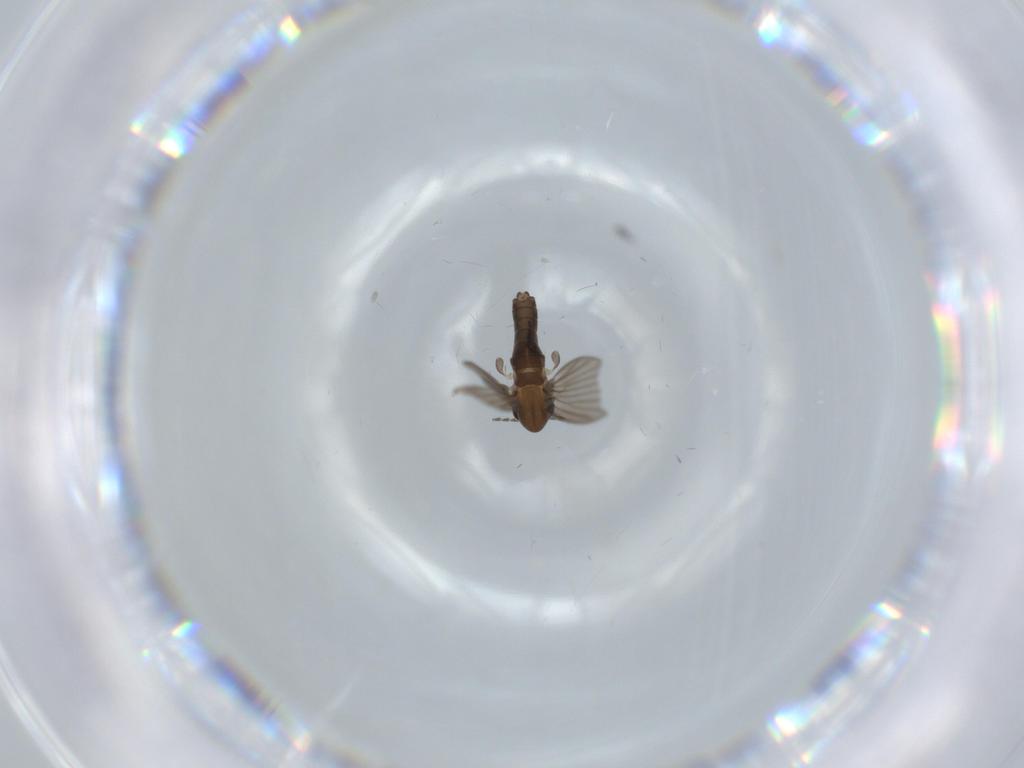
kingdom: Animalia
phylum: Arthropoda
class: Insecta
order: Diptera
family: Psychodidae
